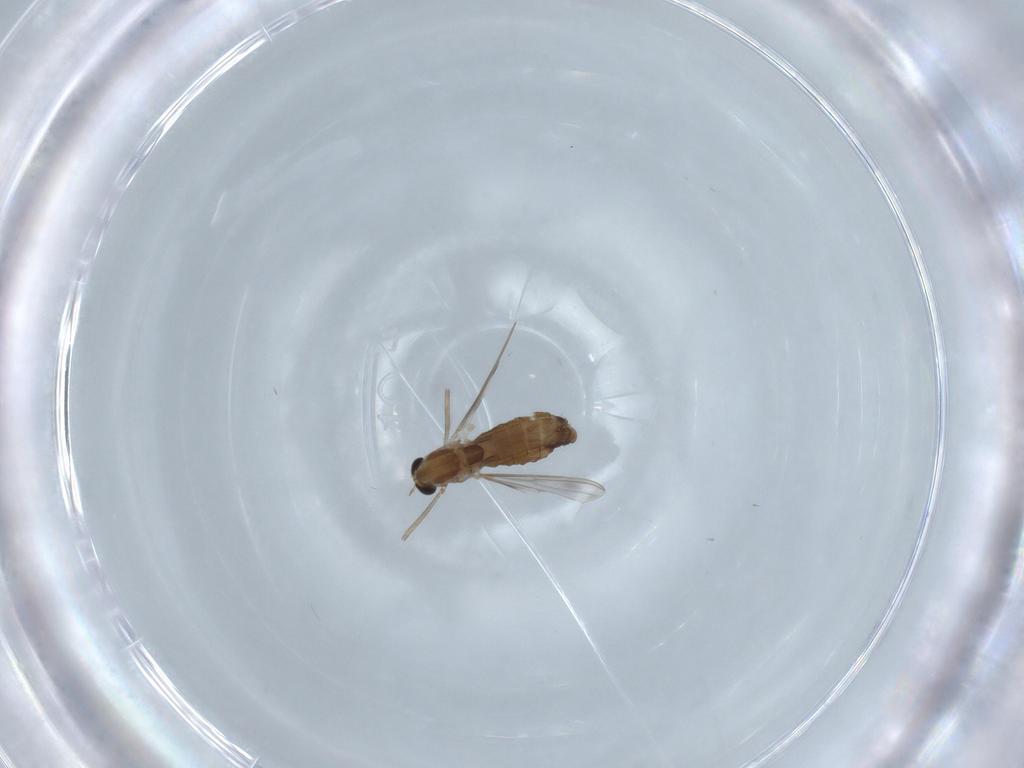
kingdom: Animalia
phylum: Arthropoda
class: Insecta
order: Diptera
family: Chironomidae
